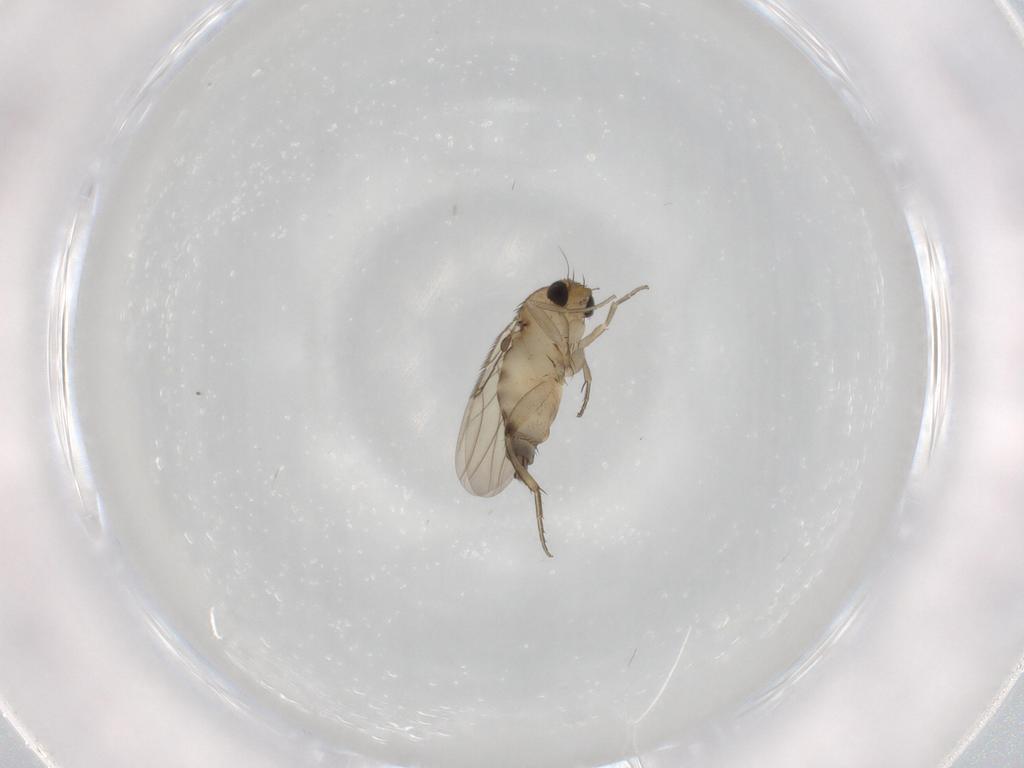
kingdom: Animalia
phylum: Arthropoda
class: Insecta
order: Diptera
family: Phoridae
